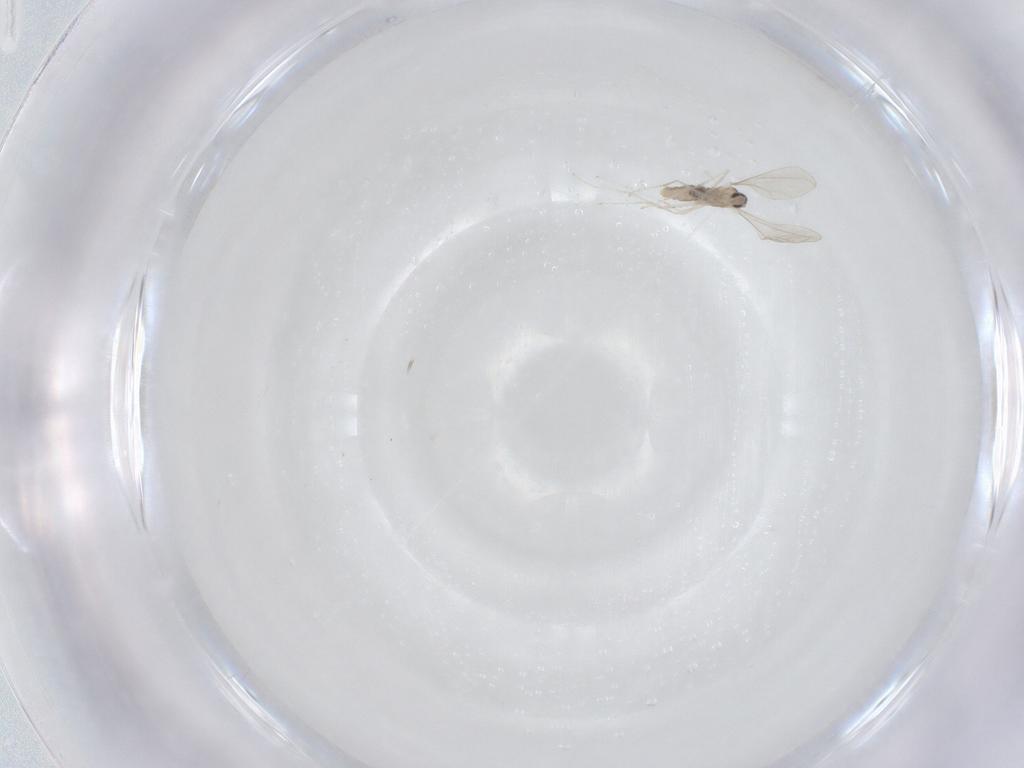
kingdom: Animalia
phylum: Arthropoda
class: Insecta
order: Diptera
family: Cecidomyiidae
